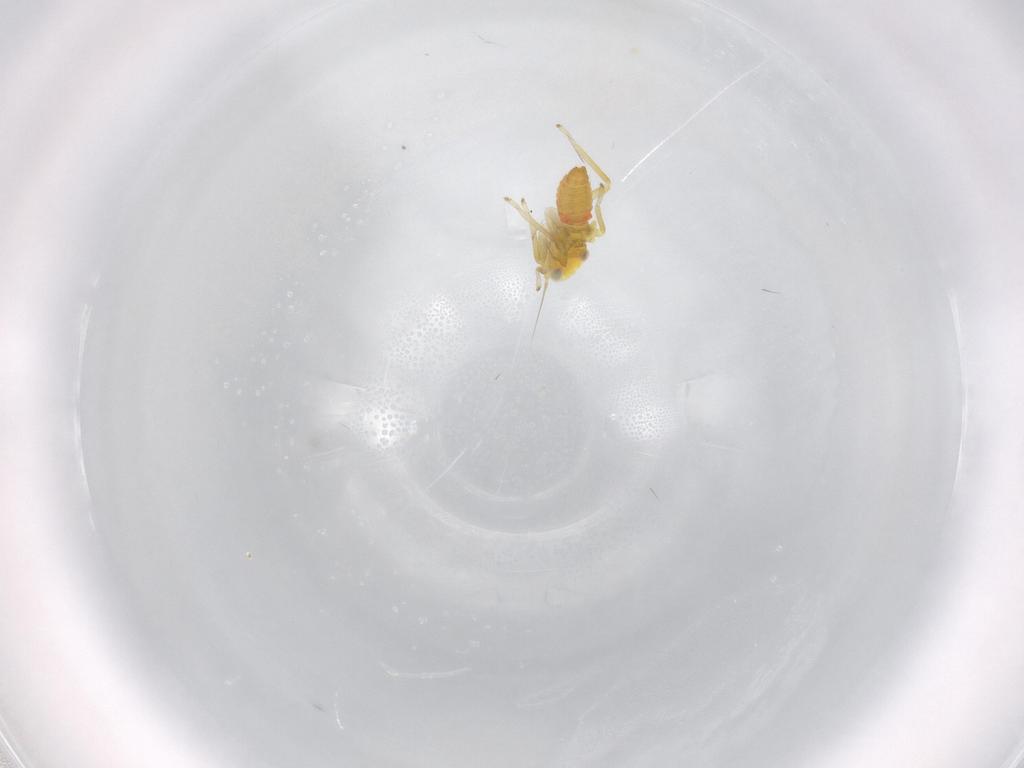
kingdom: Animalia
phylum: Arthropoda
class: Insecta
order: Hemiptera
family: Cicadellidae
